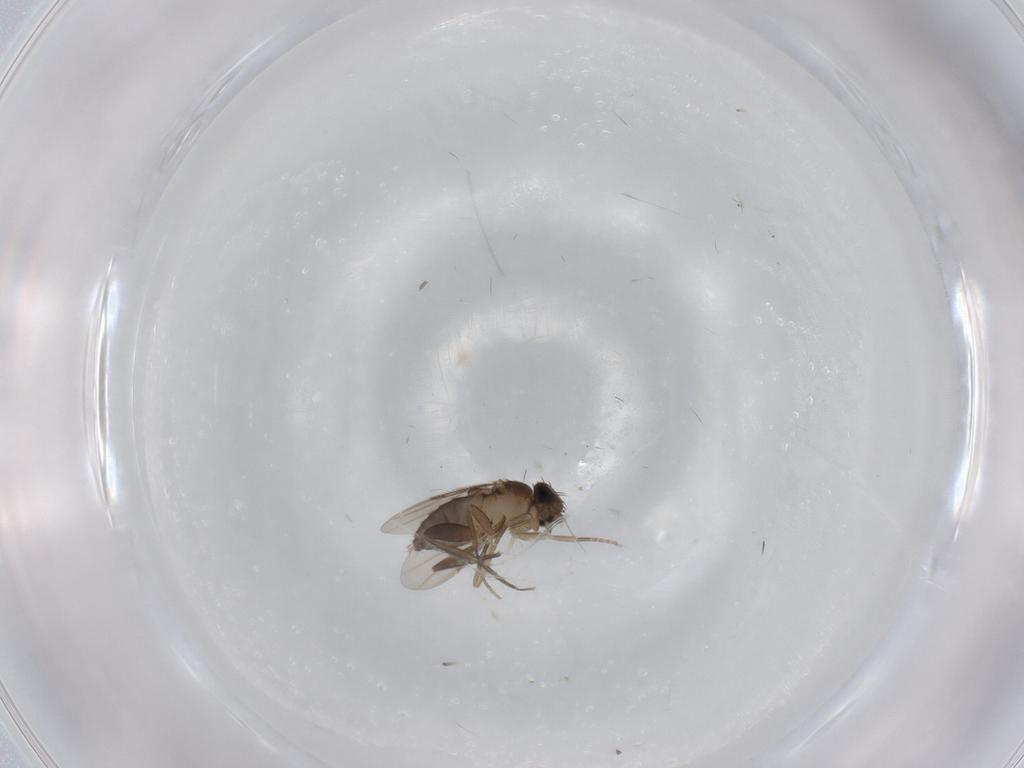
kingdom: Animalia
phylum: Arthropoda
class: Insecta
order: Diptera
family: Phoridae
